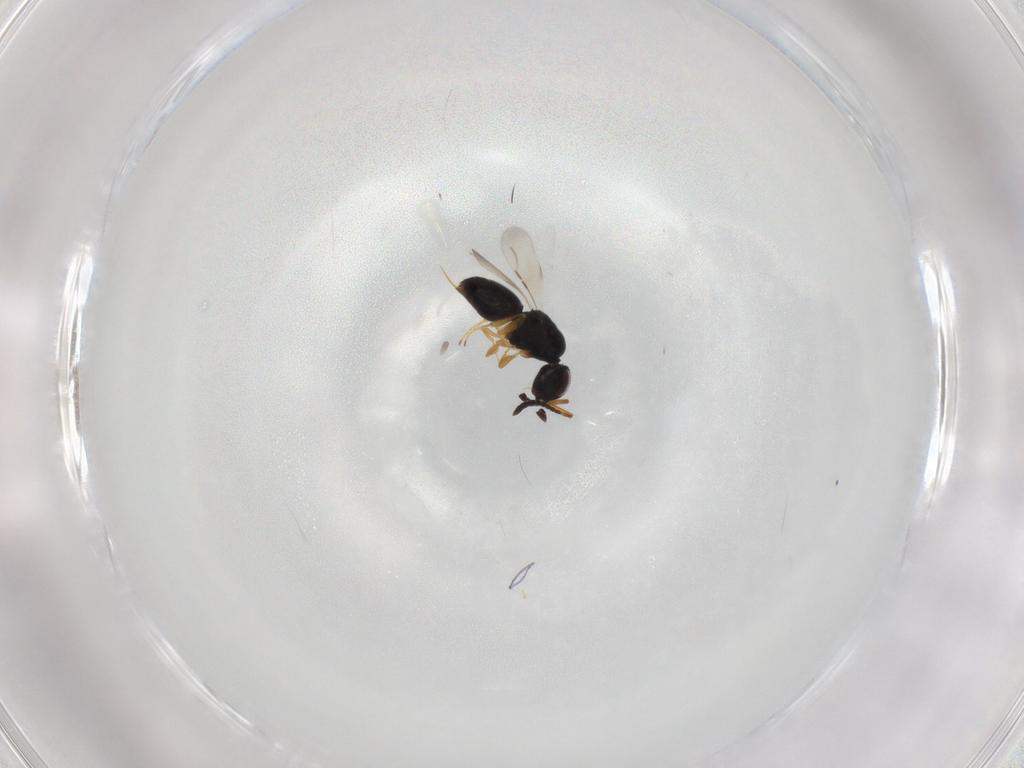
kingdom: Animalia
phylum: Arthropoda
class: Insecta
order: Hymenoptera
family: Ceraphronidae
